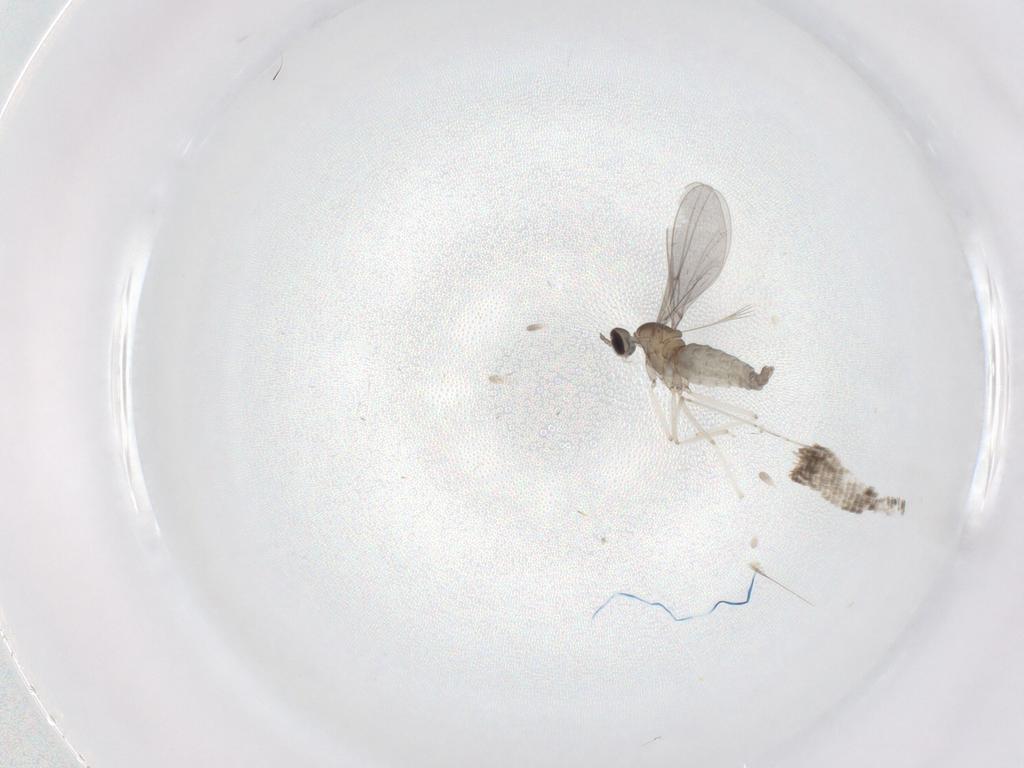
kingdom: Animalia
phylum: Arthropoda
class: Insecta
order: Diptera
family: Cecidomyiidae
